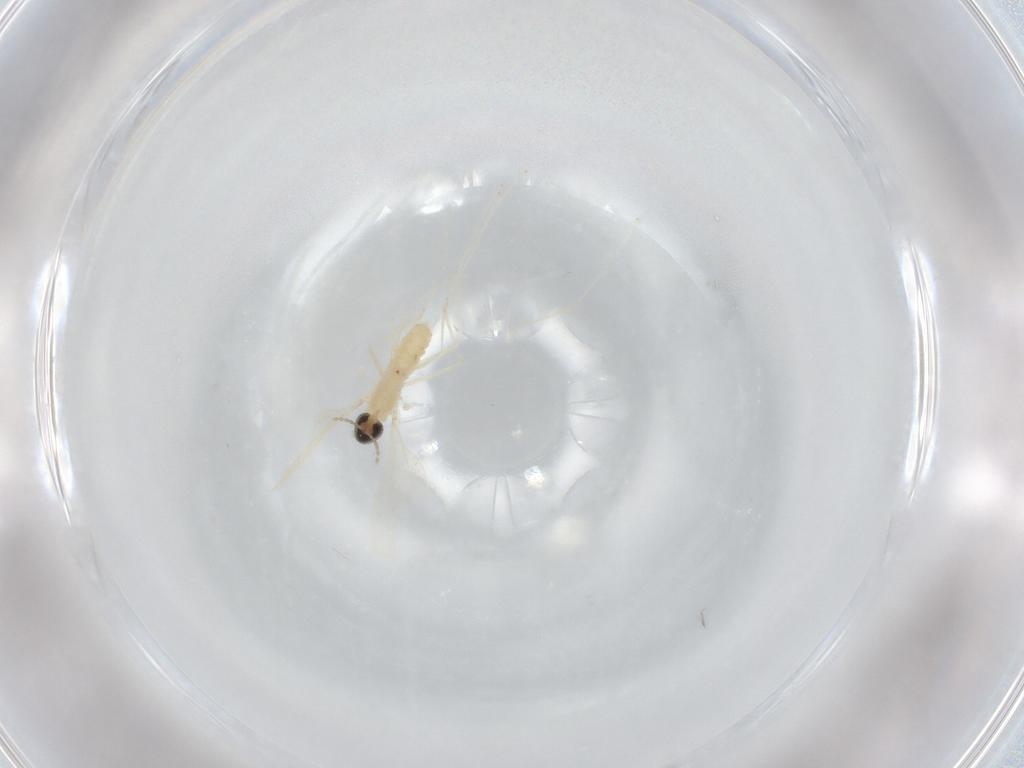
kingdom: Animalia
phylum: Arthropoda
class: Insecta
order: Diptera
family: Cecidomyiidae
